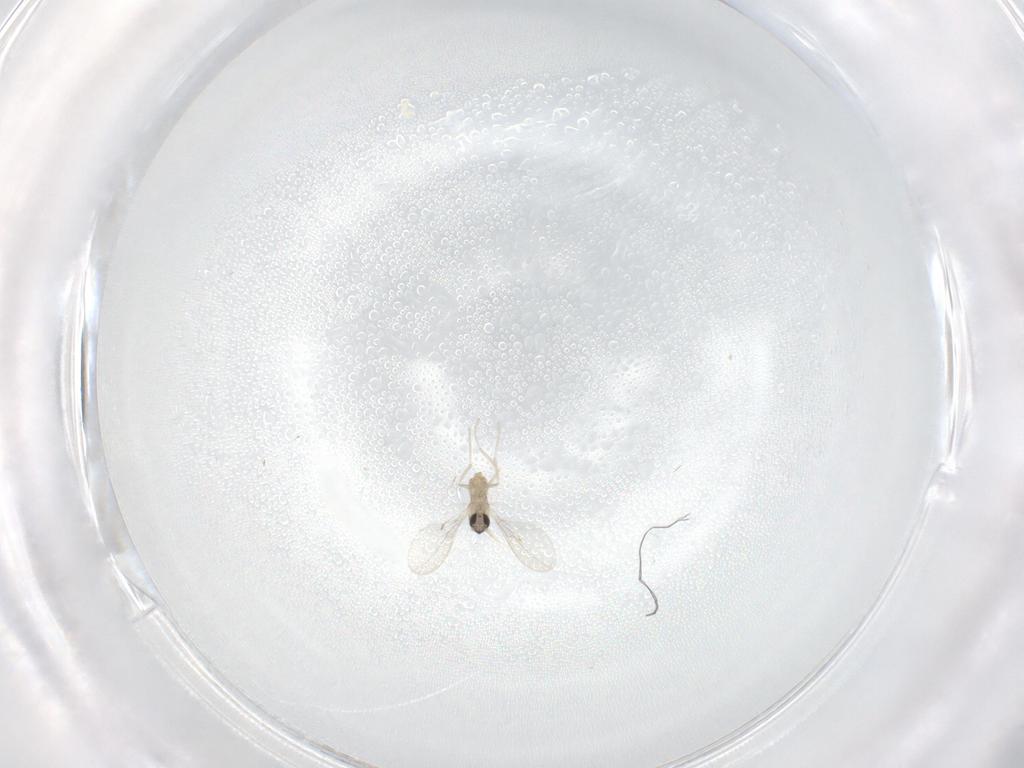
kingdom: Animalia
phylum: Arthropoda
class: Insecta
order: Diptera
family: Cecidomyiidae
